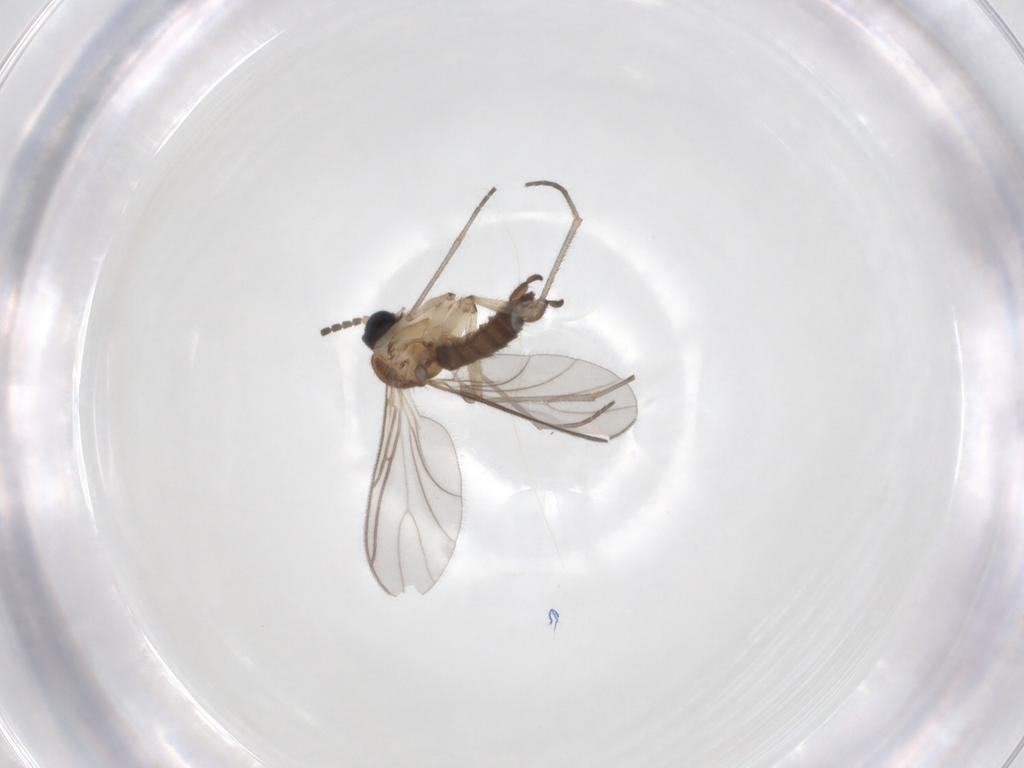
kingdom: Animalia
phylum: Arthropoda
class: Insecta
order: Diptera
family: Sciaridae
